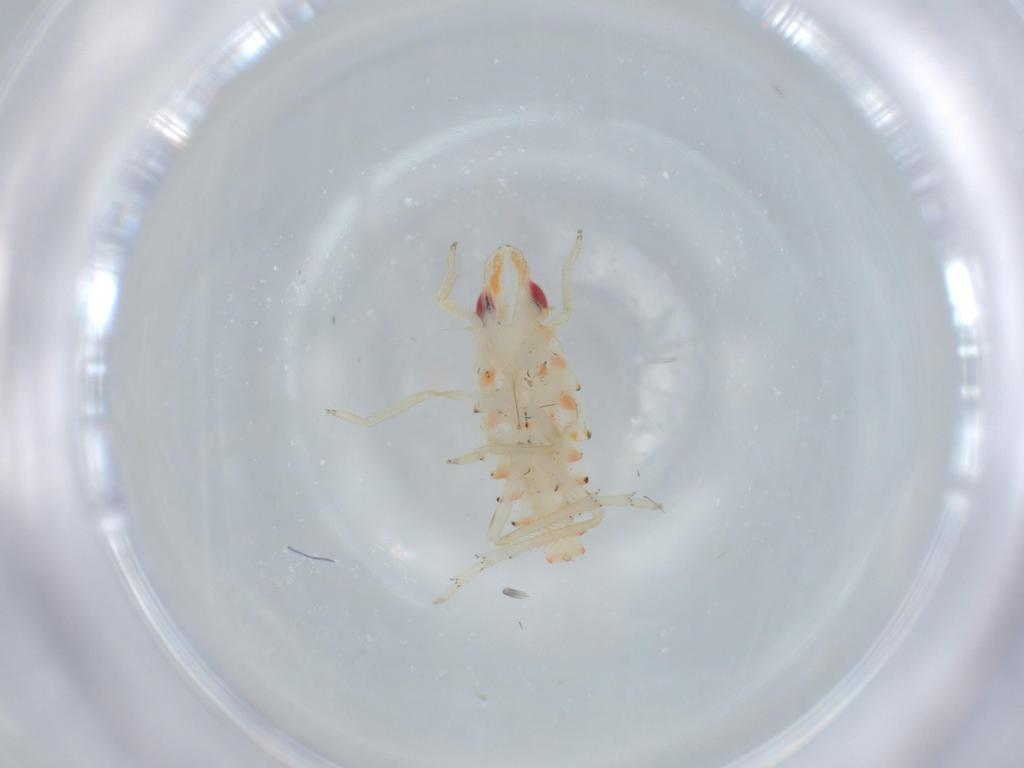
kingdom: Animalia
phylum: Arthropoda
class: Insecta
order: Hemiptera
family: Tropiduchidae
